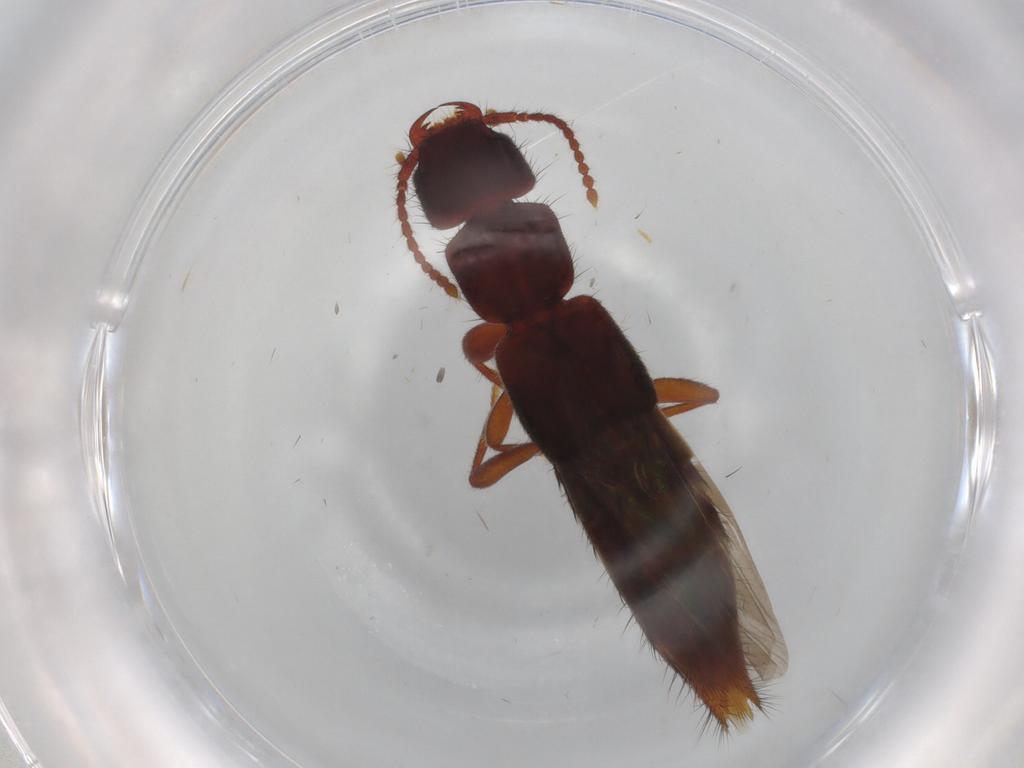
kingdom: Animalia
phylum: Arthropoda
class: Insecta
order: Coleoptera
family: Staphylinidae
